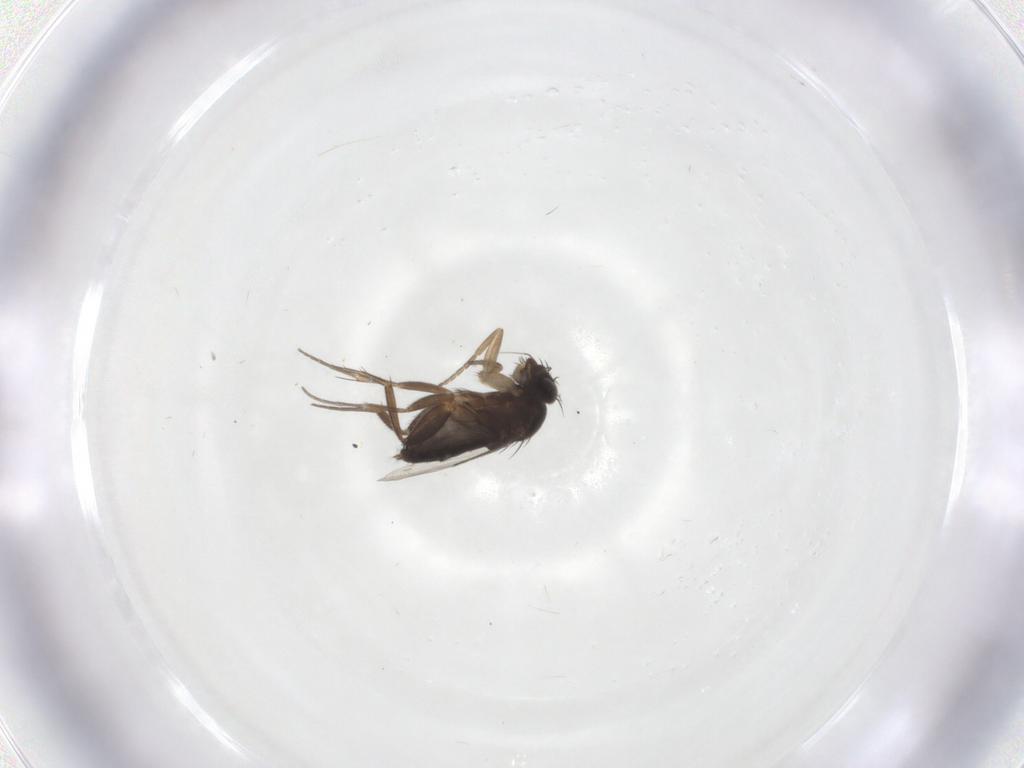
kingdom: Animalia
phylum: Arthropoda
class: Insecta
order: Diptera
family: Phoridae
